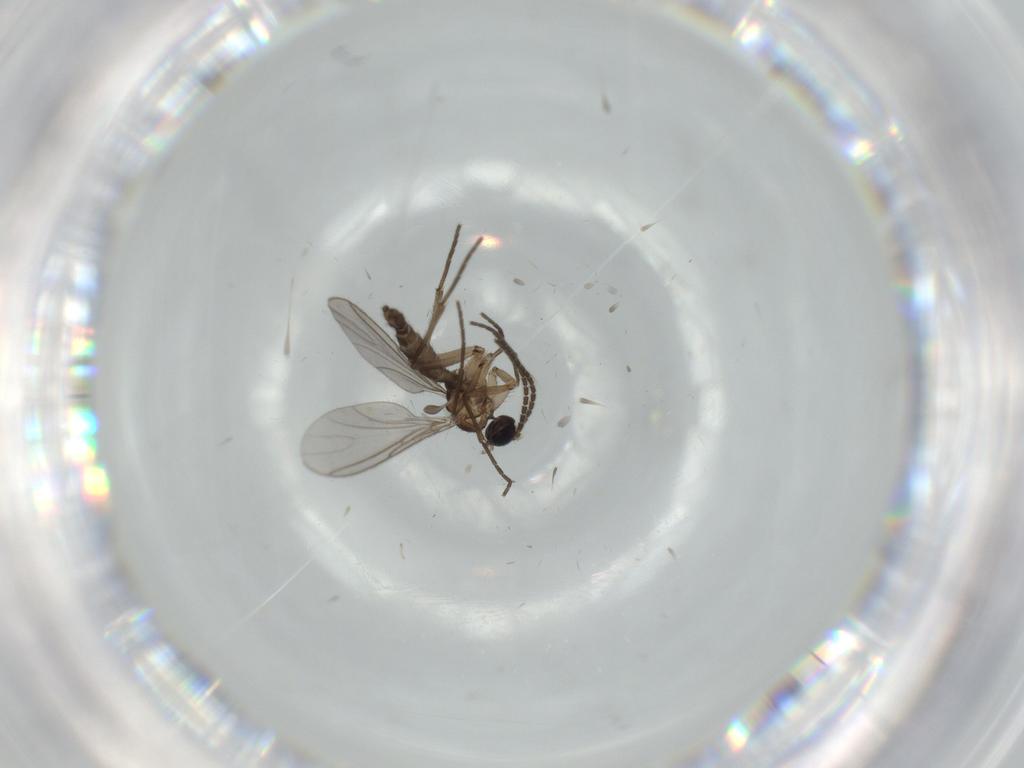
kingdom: Animalia
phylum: Arthropoda
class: Insecta
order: Diptera
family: Sciaridae
